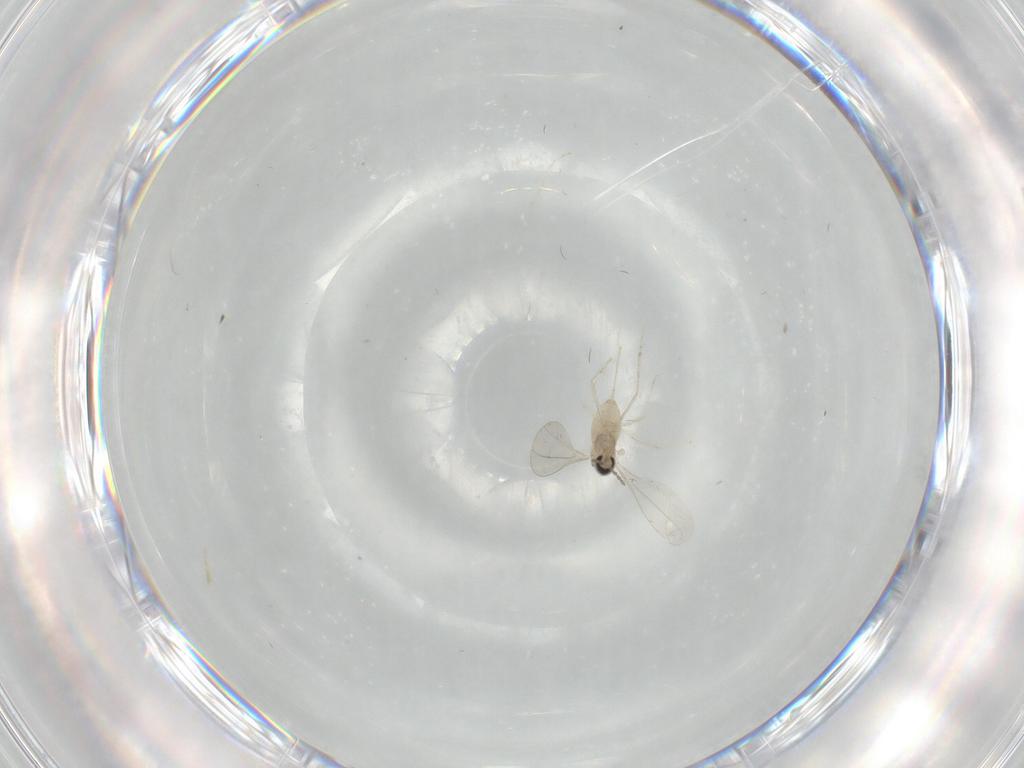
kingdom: Animalia
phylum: Arthropoda
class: Insecta
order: Diptera
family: Cecidomyiidae
